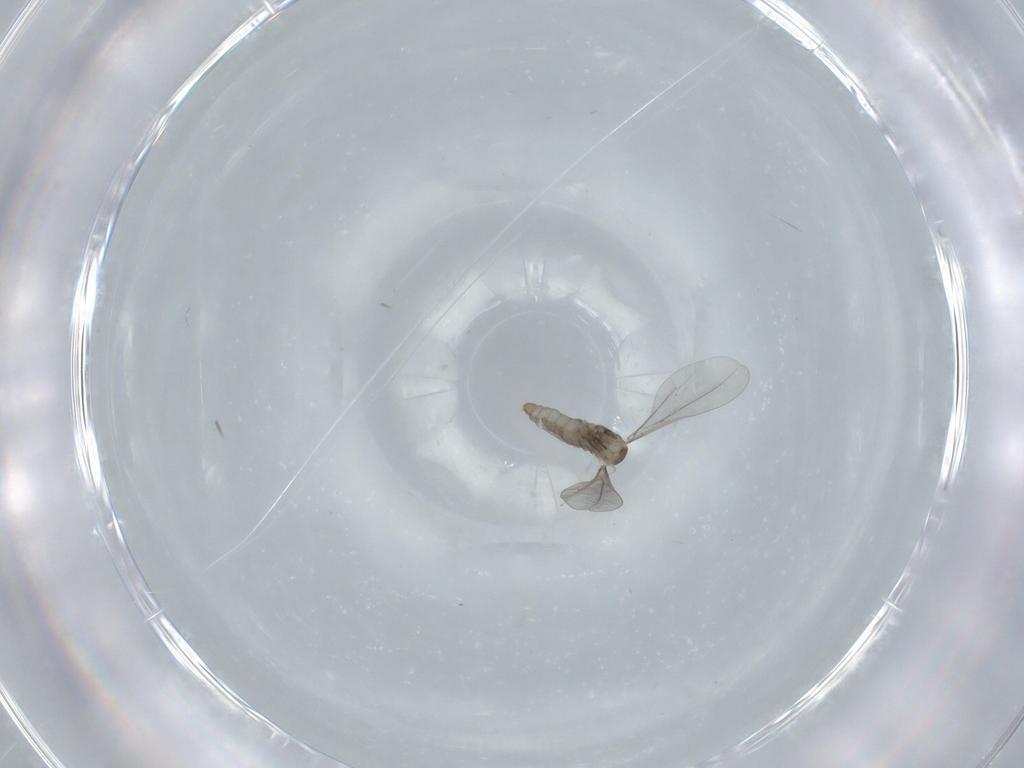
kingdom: Animalia
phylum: Arthropoda
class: Insecta
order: Diptera
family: Cecidomyiidae
